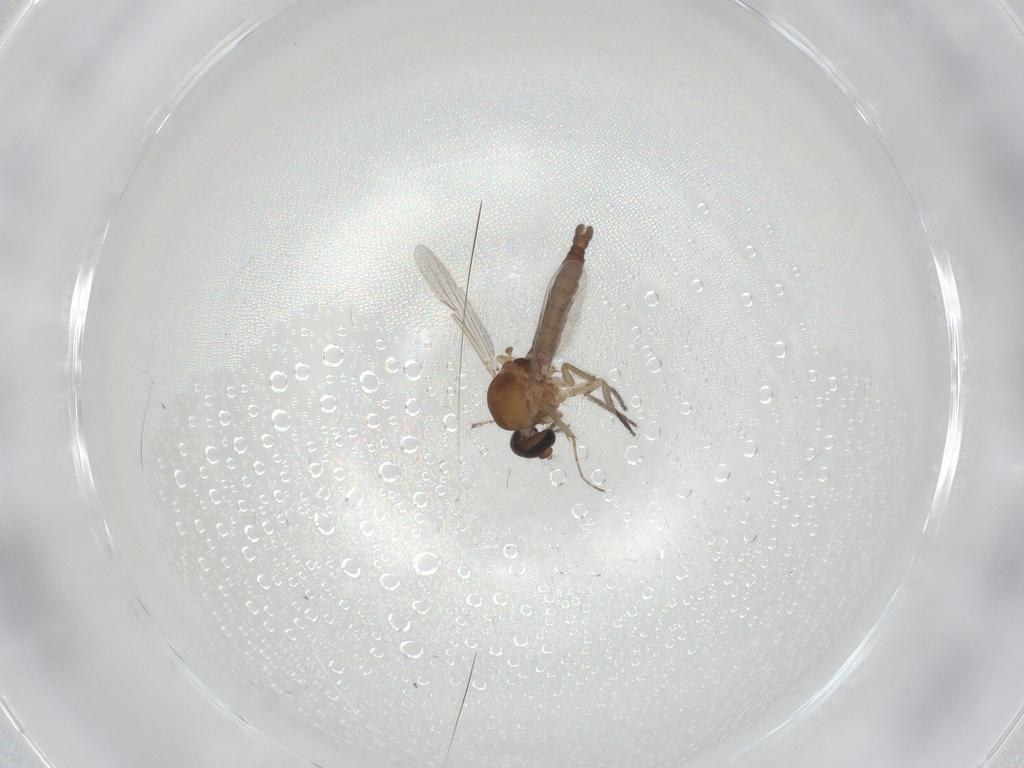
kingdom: Animalia
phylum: Arthropoda
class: Insecta
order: Diptera
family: Ceratopogonidae
